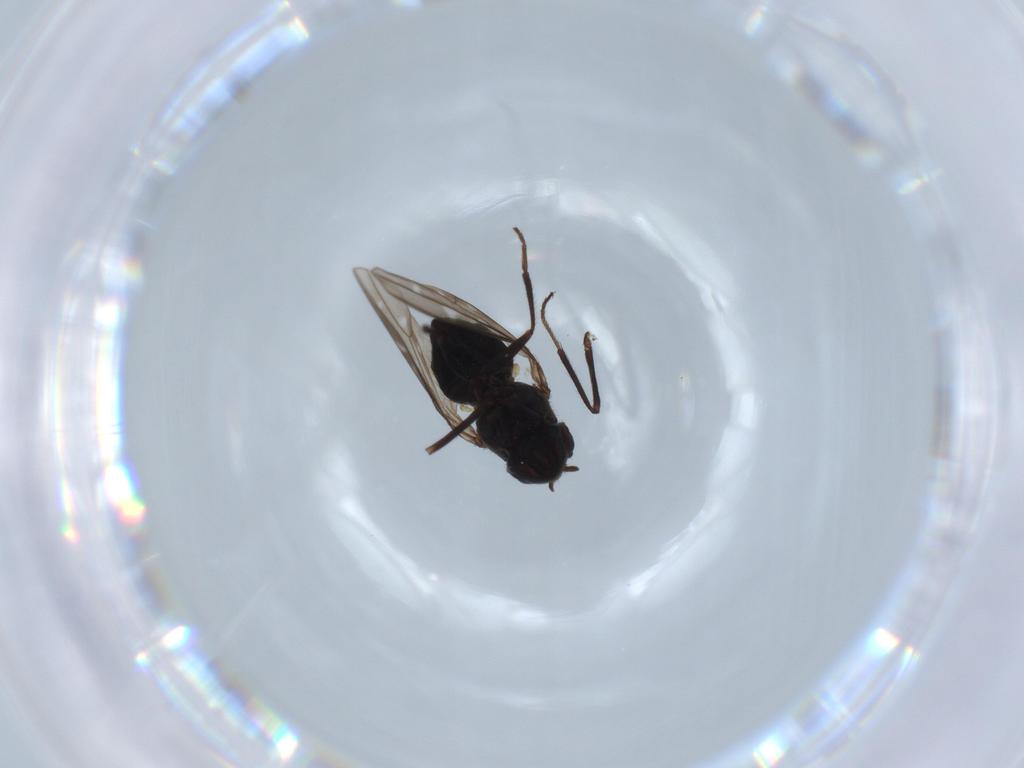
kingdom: Animalia
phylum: Arthropoda
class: Insecta
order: Diptera
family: Ephydridae
